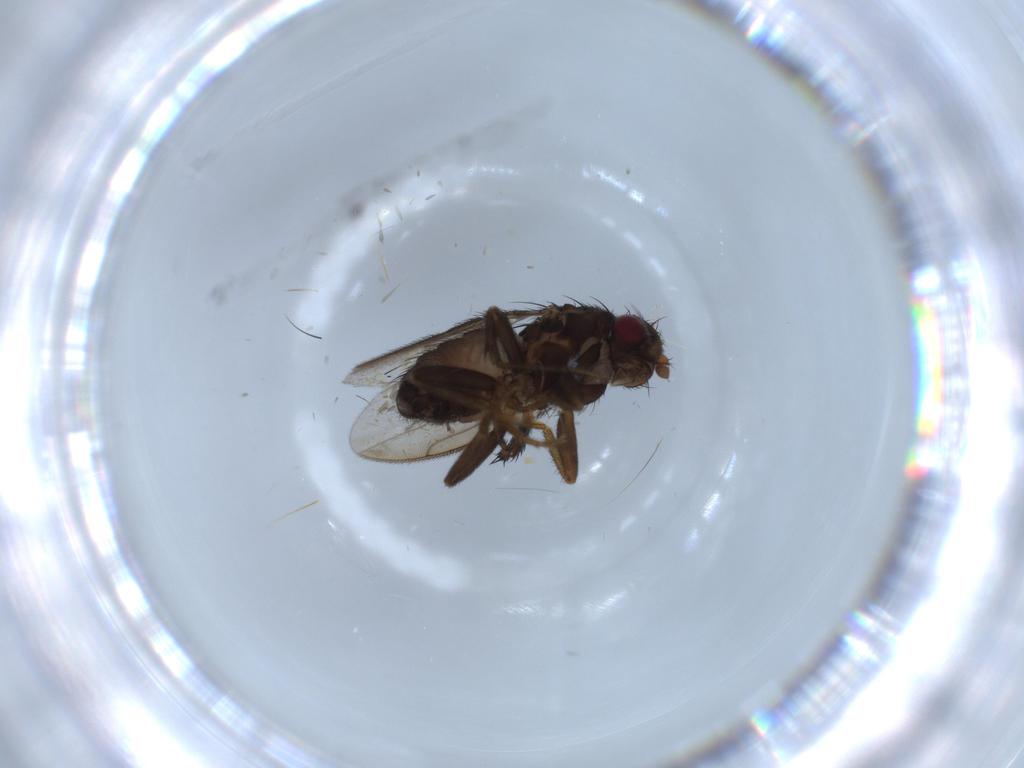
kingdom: Animalia
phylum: Arthropoda
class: Insecta
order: Diptera
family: Sphaeroceridae
